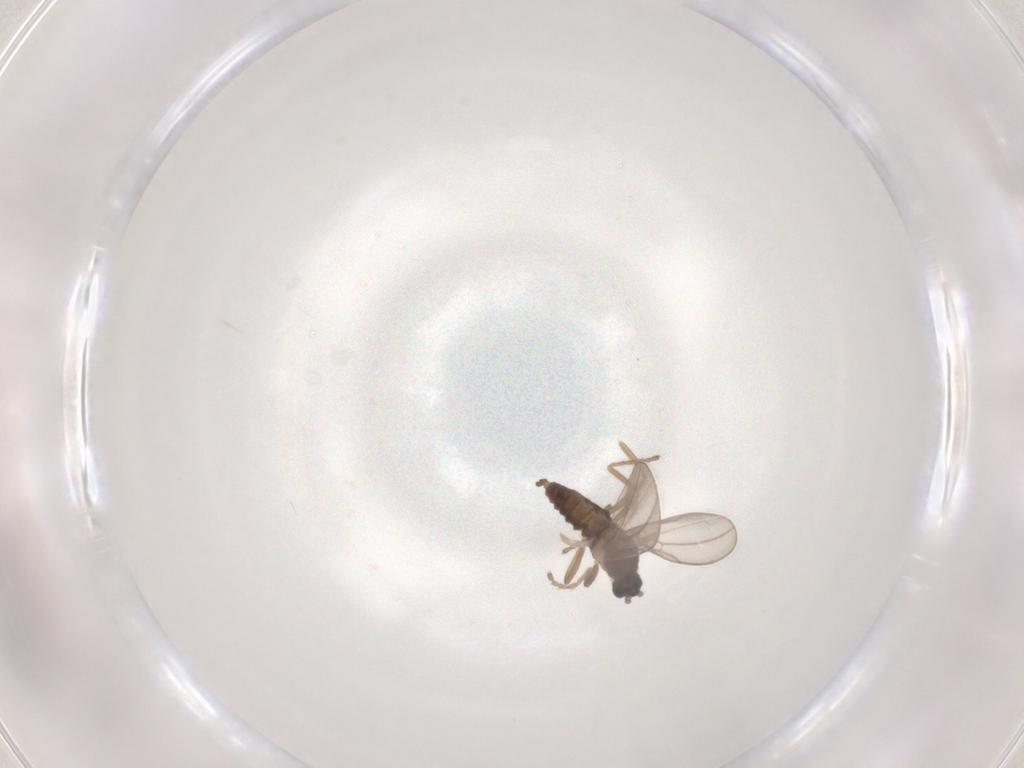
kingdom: Animalia
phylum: Arthropoda
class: Insecta
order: Diptera
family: Cecidomyiidae
